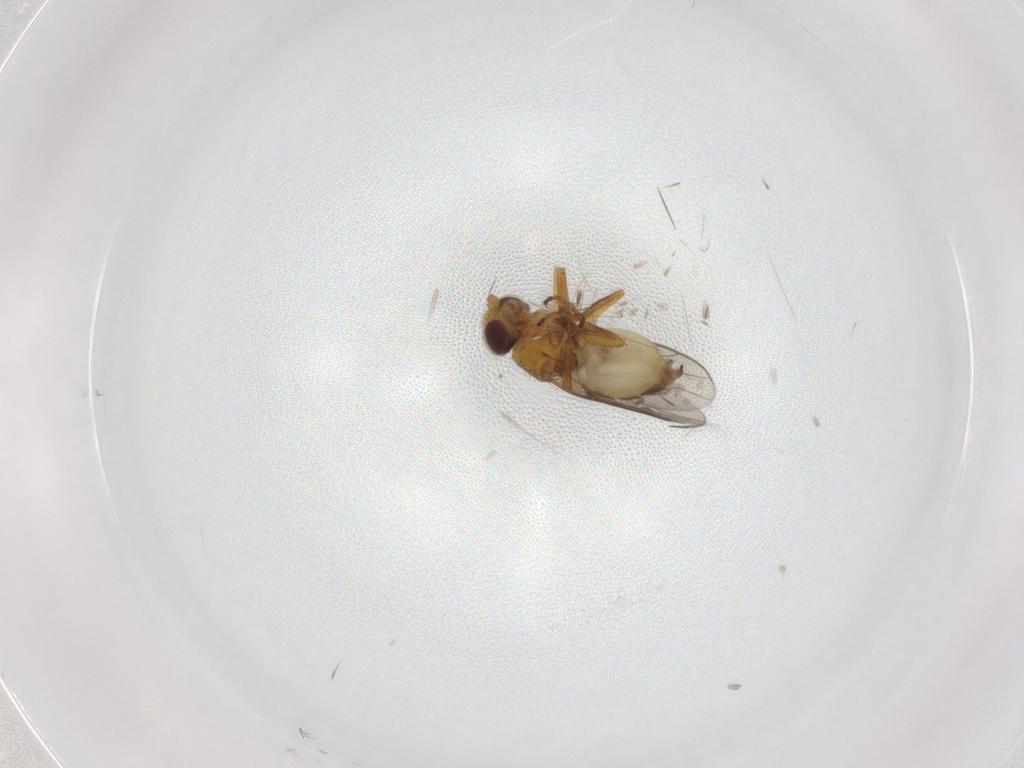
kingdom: Animalia
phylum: Arthropoda
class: Insecta
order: Diptera
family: Chloropidae
